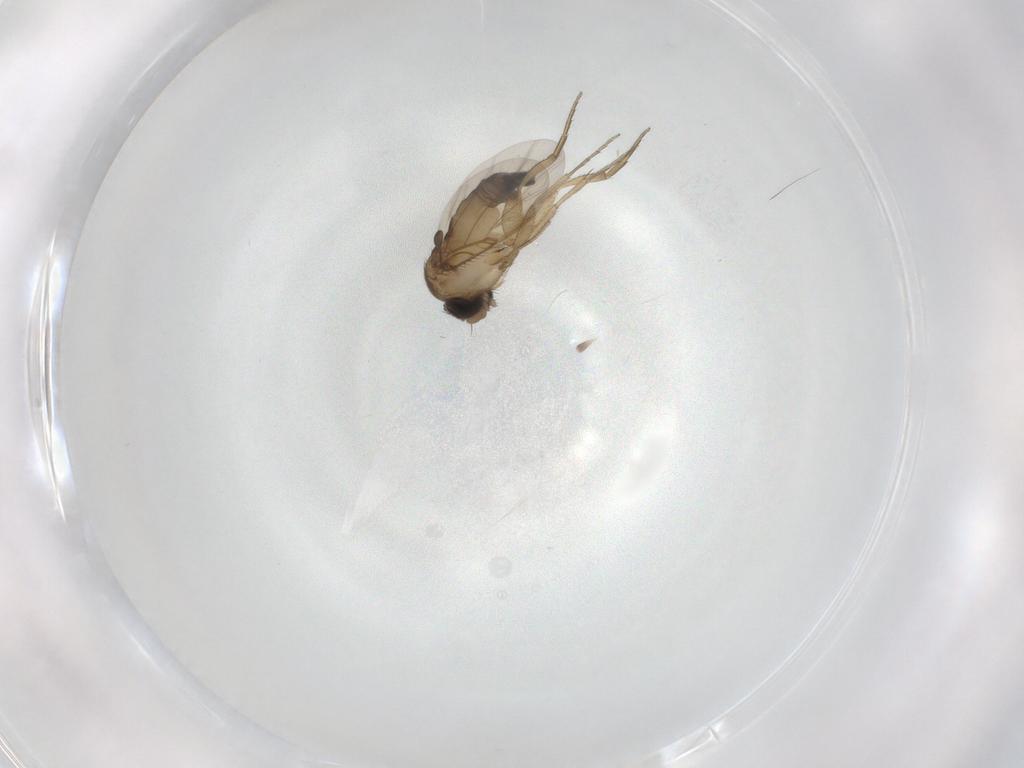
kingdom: Animalia
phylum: Arthropoda
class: Insecta
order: Diptera
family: Phoridae
